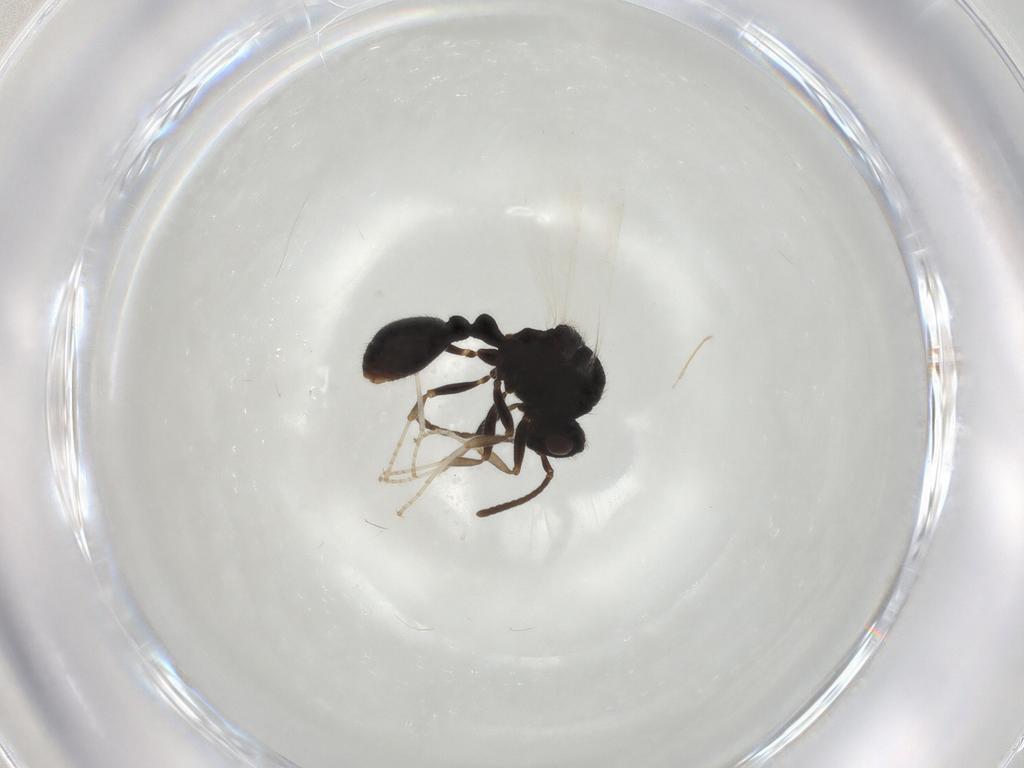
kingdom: Animalia
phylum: Arthropoda
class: Insecta
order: Hymenoptera
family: Formicidae
